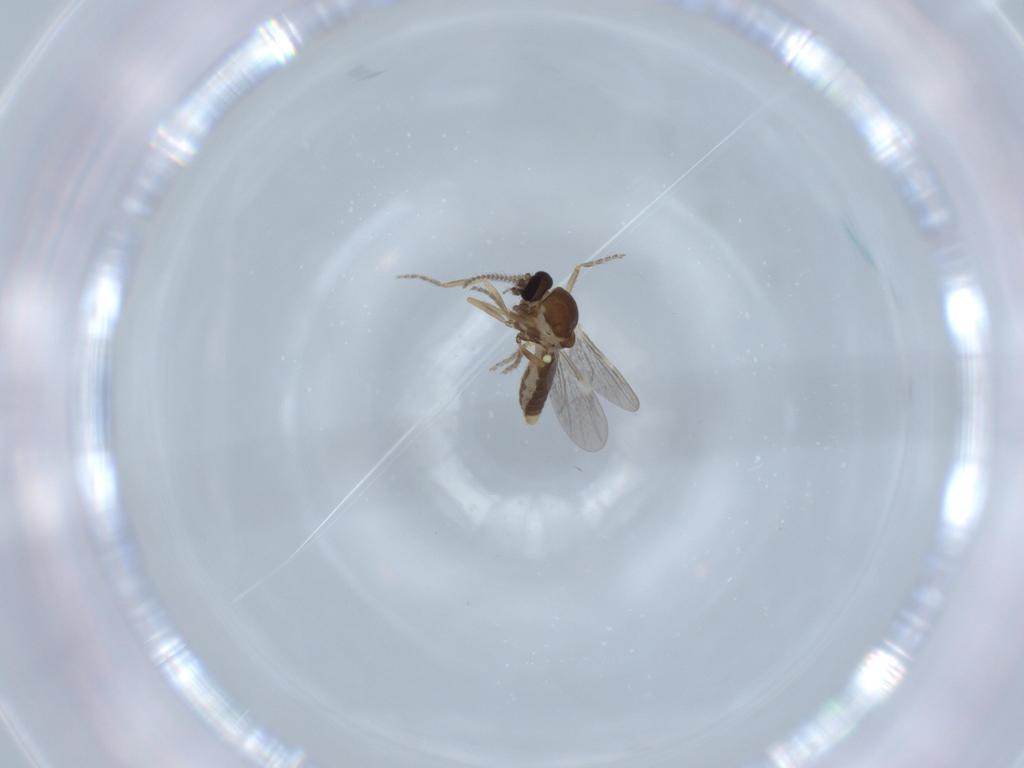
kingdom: Animalia
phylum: Arthropoda
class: Insecta
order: Diptera
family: Ceratopogonidae
